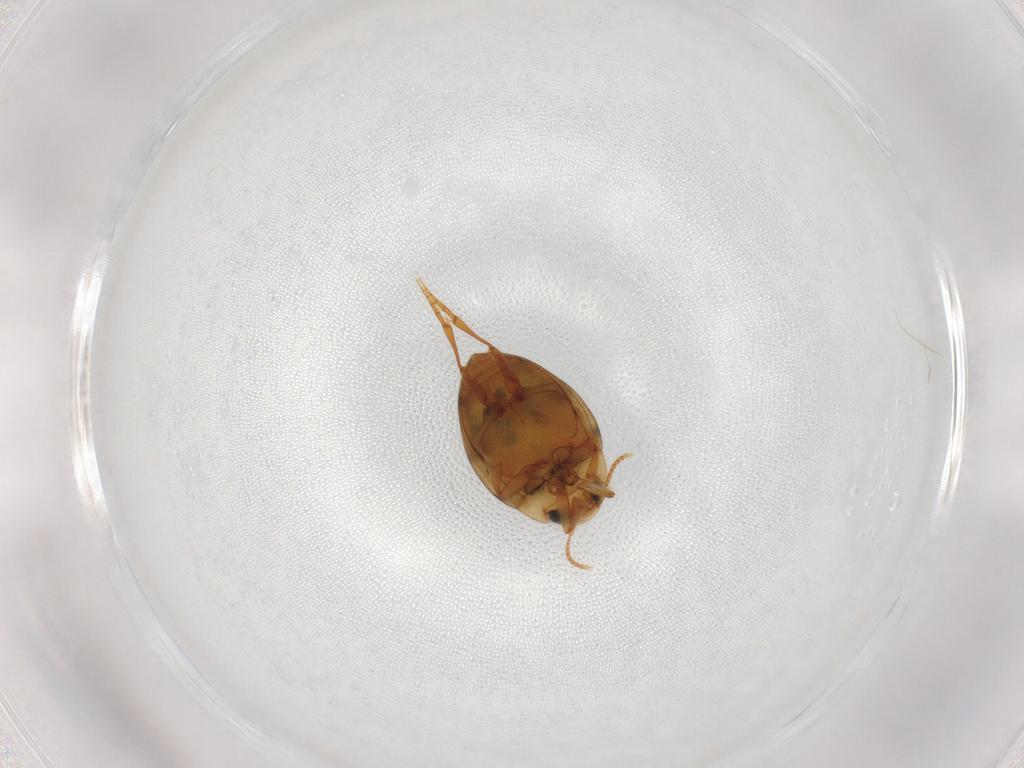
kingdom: Animalia
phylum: Arthropoda
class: Insecta
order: Coleoptera
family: Dytiscidae
